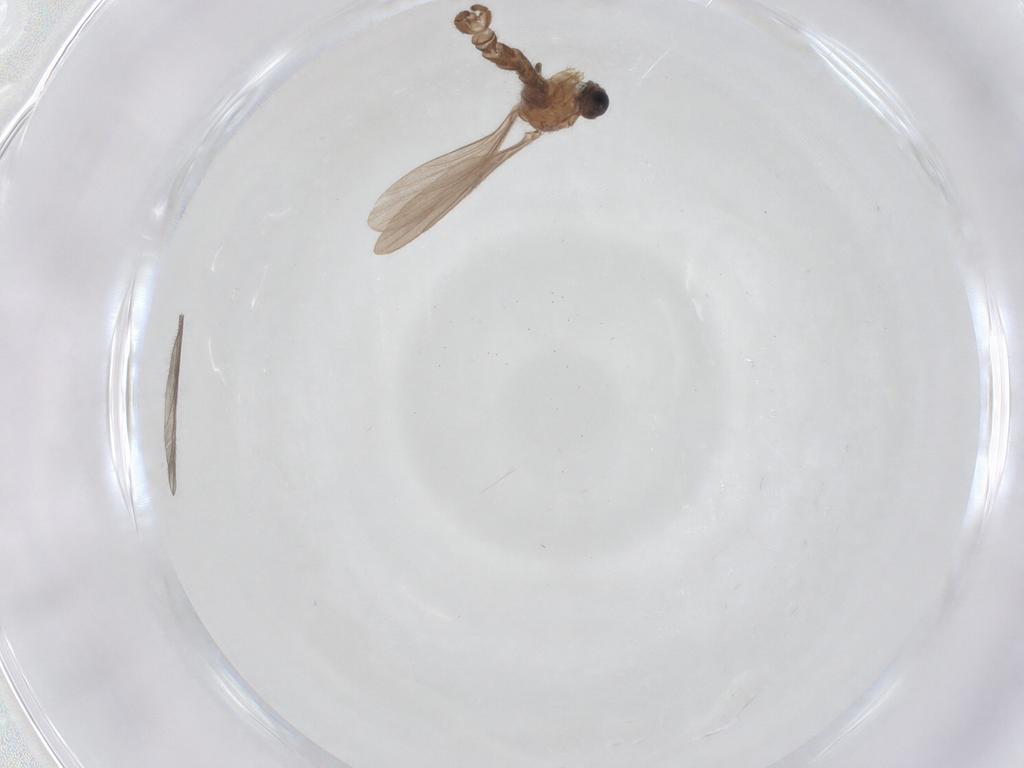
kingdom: Animalia
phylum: Arthropoda
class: Insecta
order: Diptera
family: Cecidomyiidae
